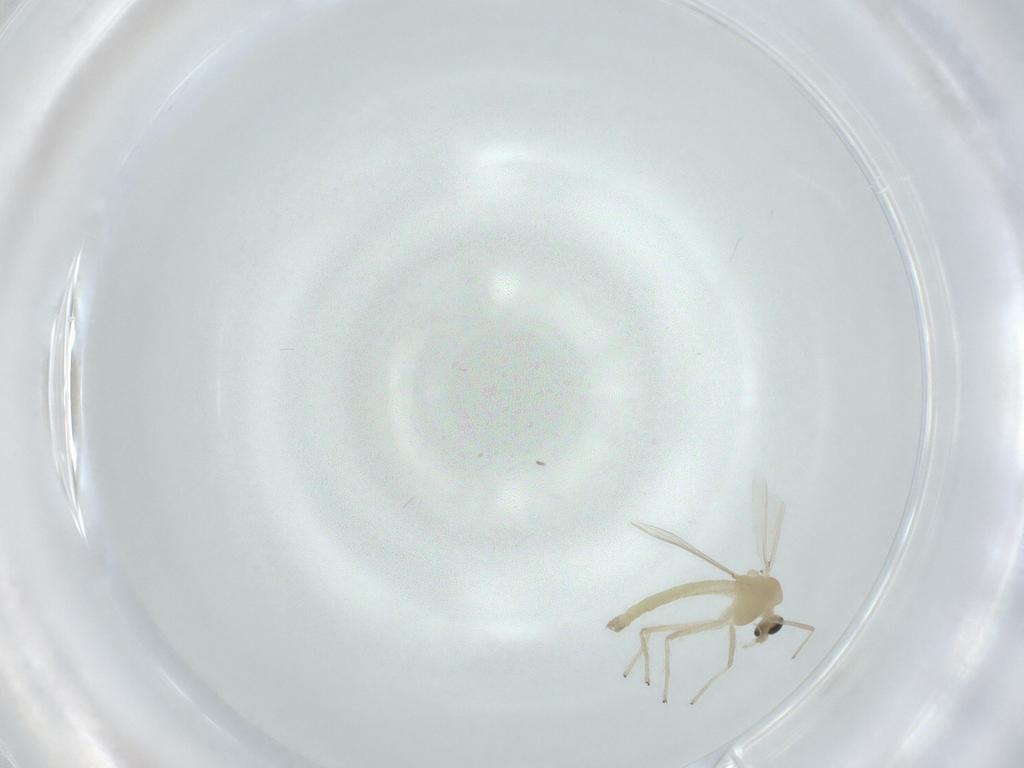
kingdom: Animalia
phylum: Arthropoda
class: Insecta
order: Diptera
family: Chironomidae
